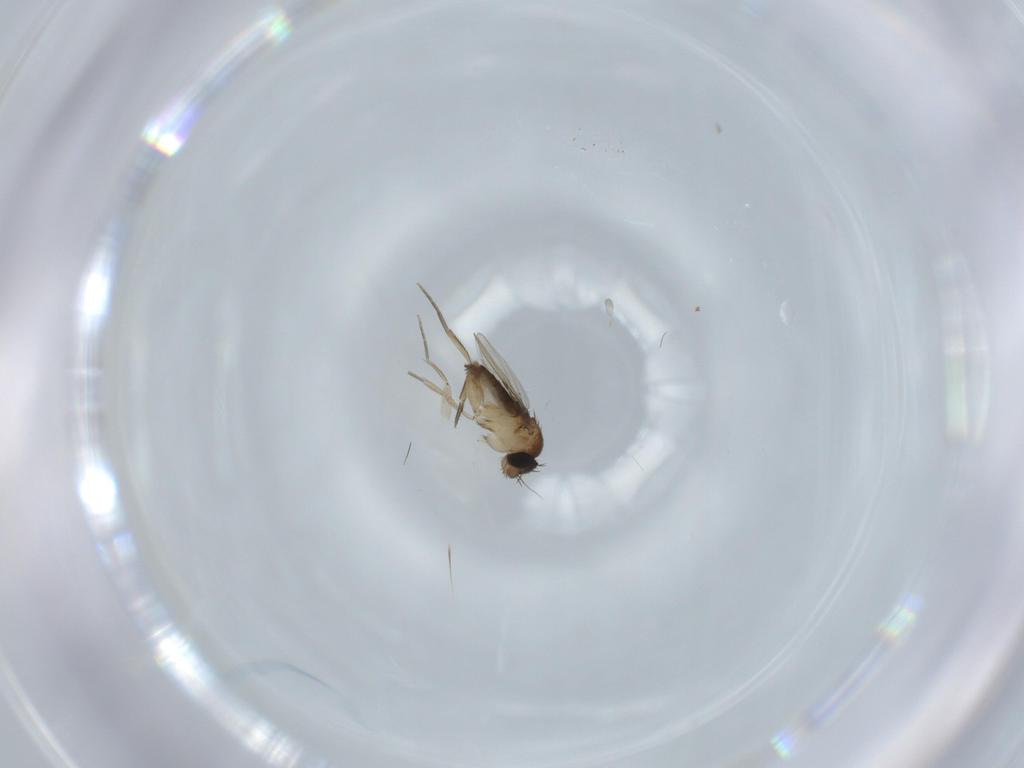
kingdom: Animalia
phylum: Arthropoda
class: Insecta
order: Diptera
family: Phoridae
